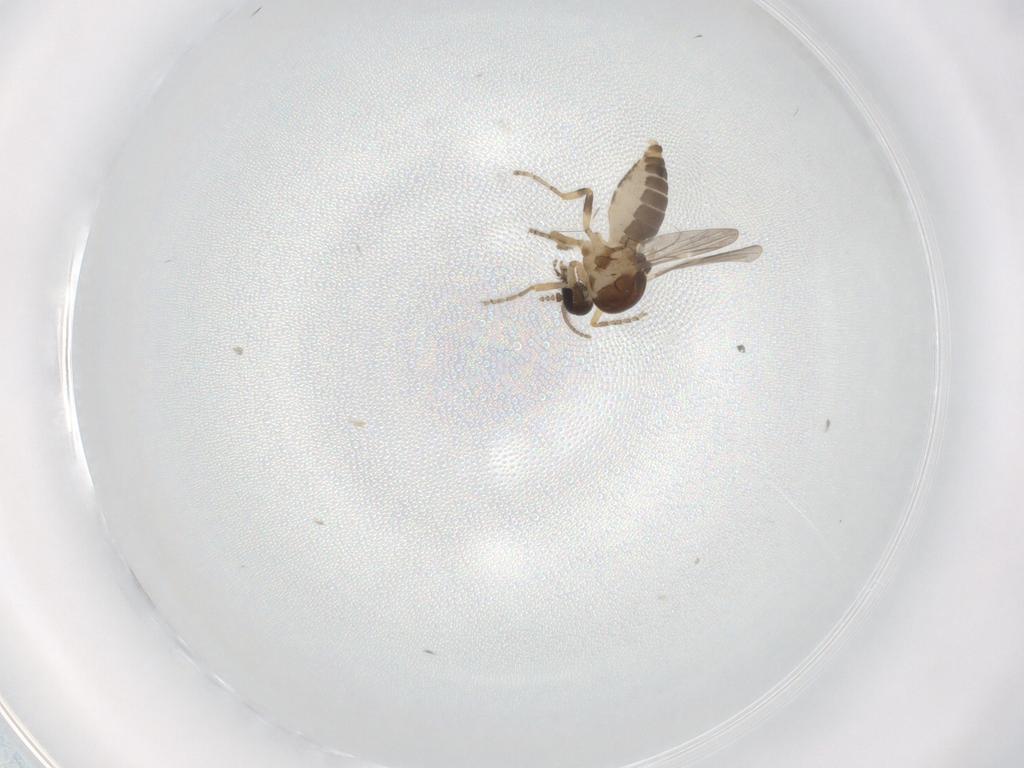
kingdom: Animalia
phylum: Arthropoda
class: Insecta
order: Diptera
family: Ceratopogonidae
